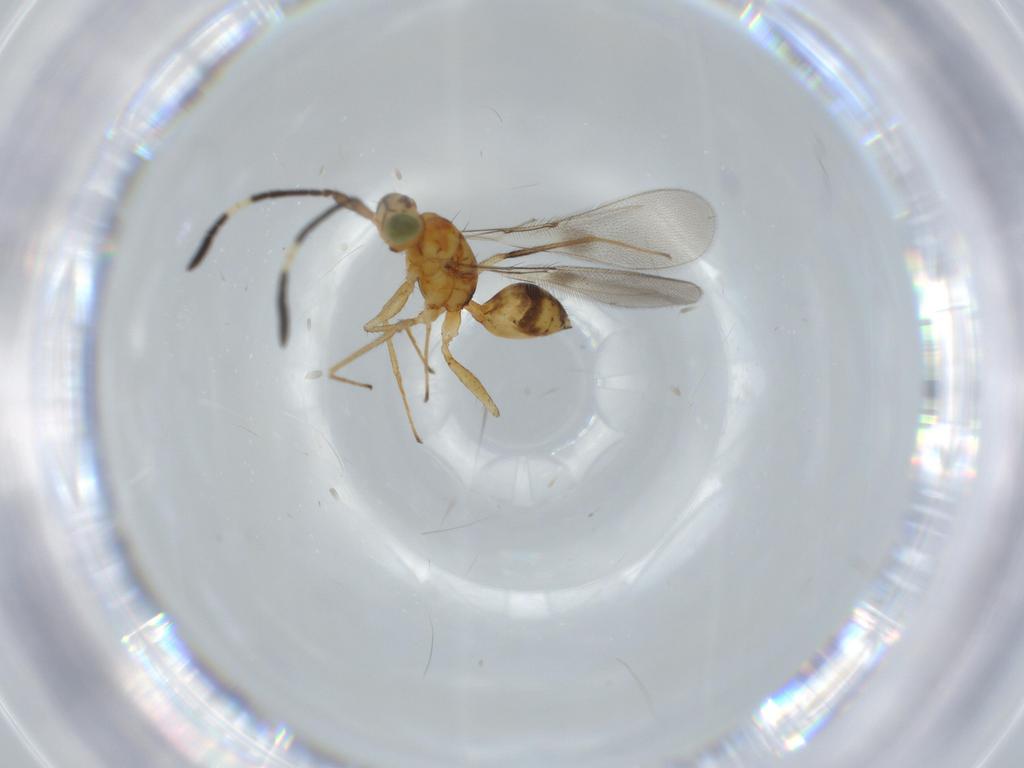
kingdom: Animalia
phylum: Arthropoda
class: Insecta
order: Hymenoptera
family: Mymaridae
